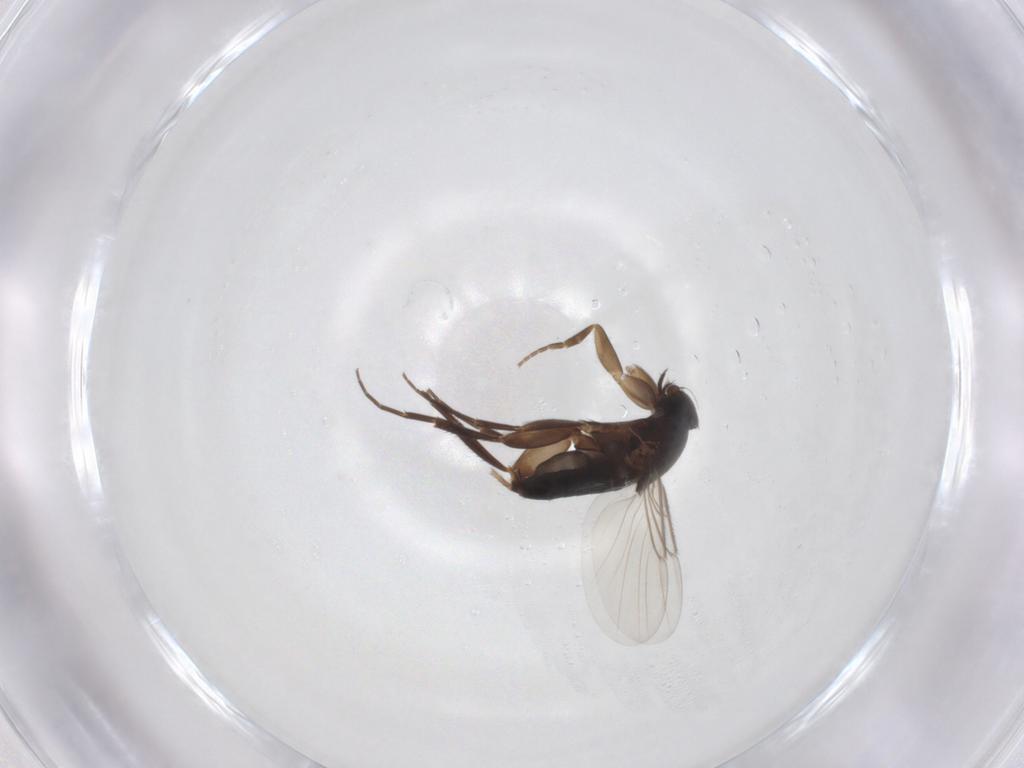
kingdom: Animalia
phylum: Arthropoda
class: Insecta
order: Diptera
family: Phoridae
